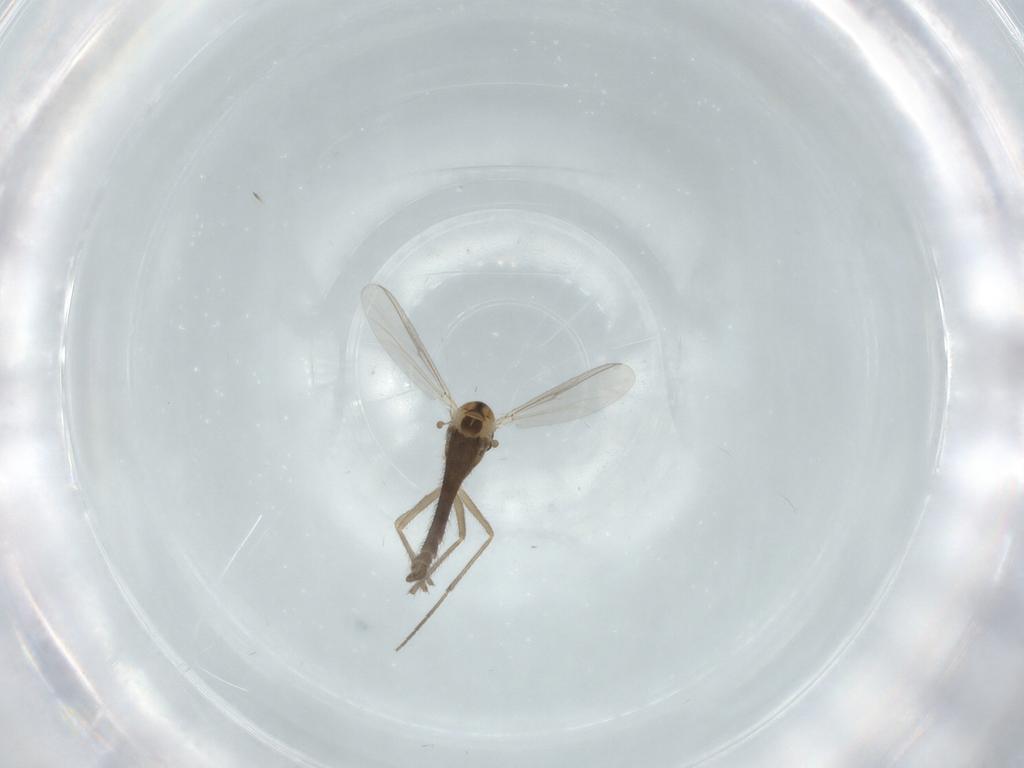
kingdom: Animalia
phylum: Arthropoda
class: Insecta
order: Diptera
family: Chironomidae
